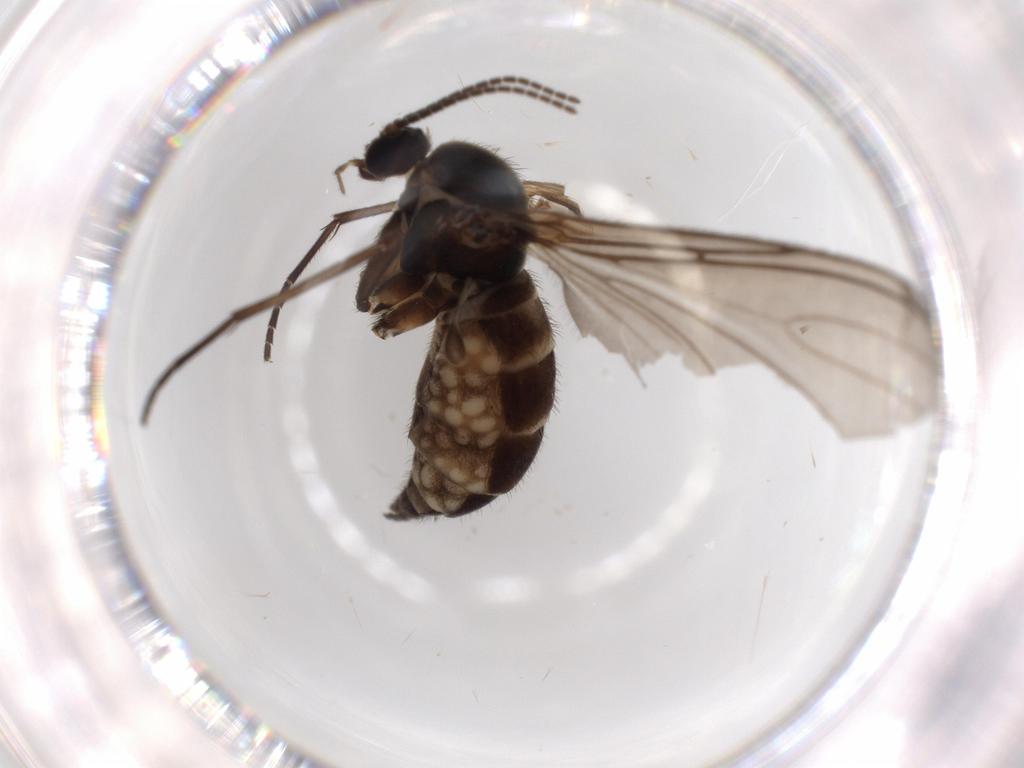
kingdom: Animalia
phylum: Arthropoda
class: Insecta
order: Diptera
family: Sciaridae
